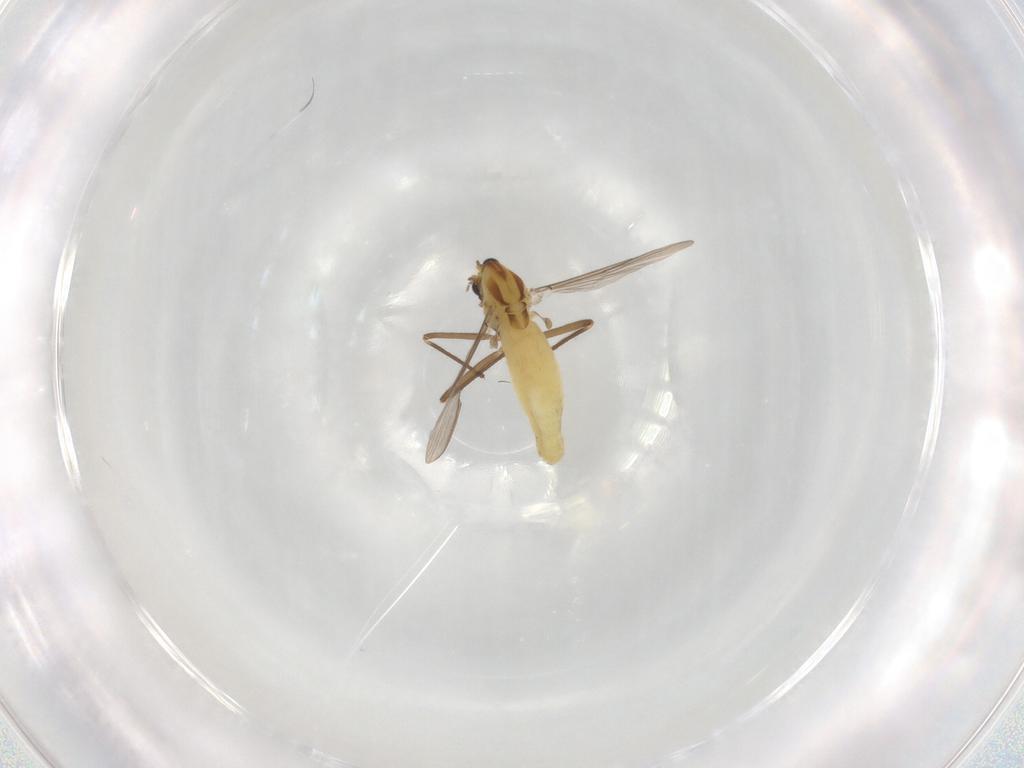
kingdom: Animalia
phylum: Arthropoda
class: Insecta
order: Diptera
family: Chironomidae
